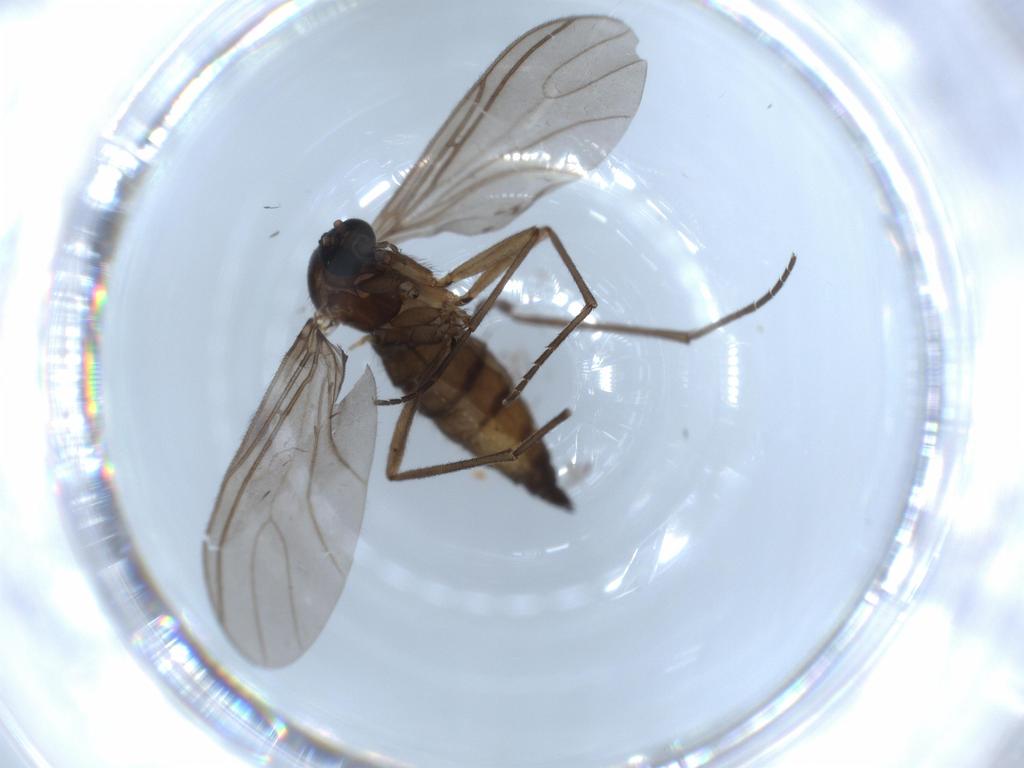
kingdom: Animalia
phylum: Arthropoda
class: Insecta
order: Diptera
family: Sciaridae
